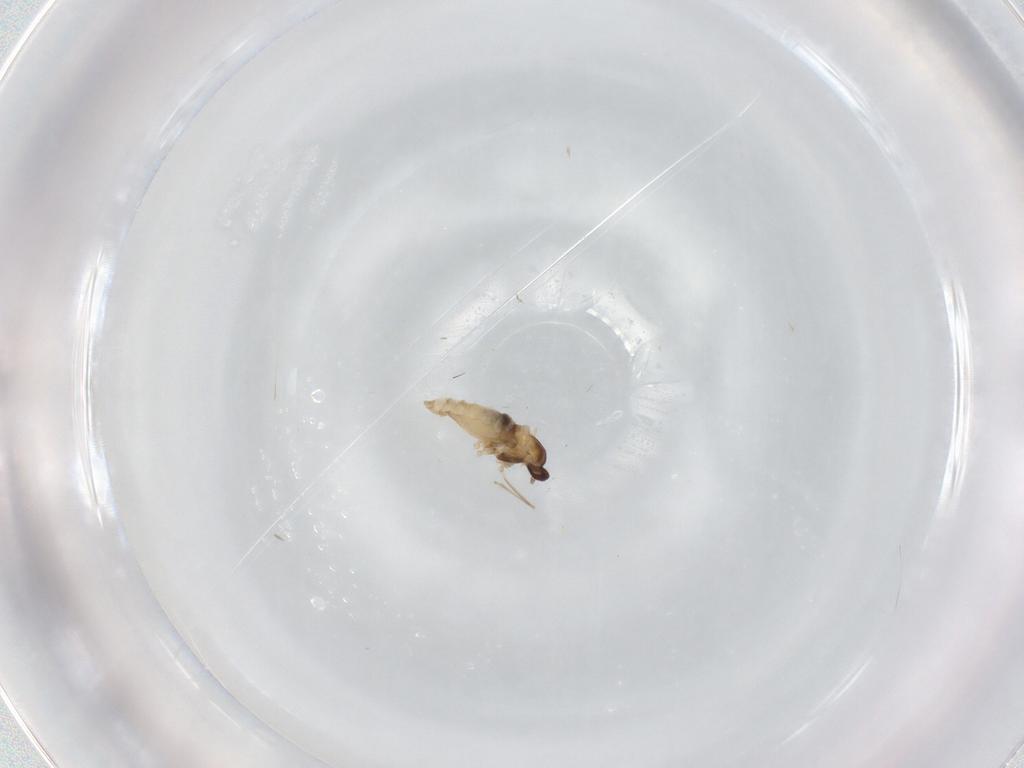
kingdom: Animalia
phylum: Arthropoda
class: Insecta
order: Diptera
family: Cecidomyiidae
